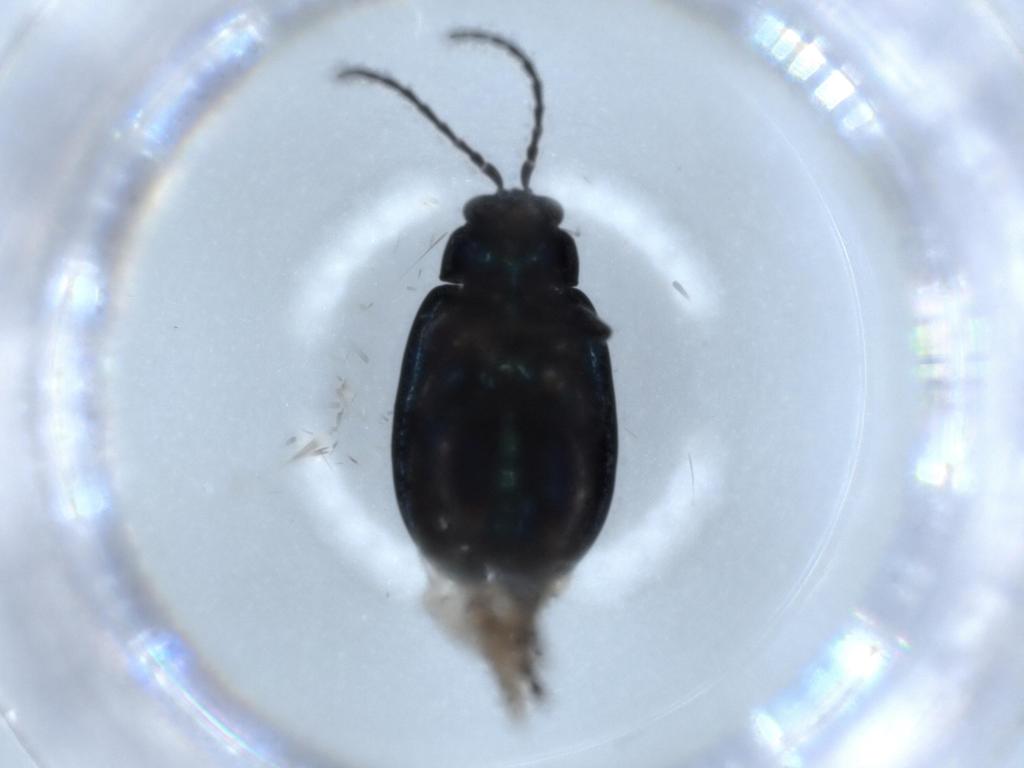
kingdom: Animalia
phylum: Arthropoda
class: Insecta
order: Coleoptera
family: Chrysomelidae
